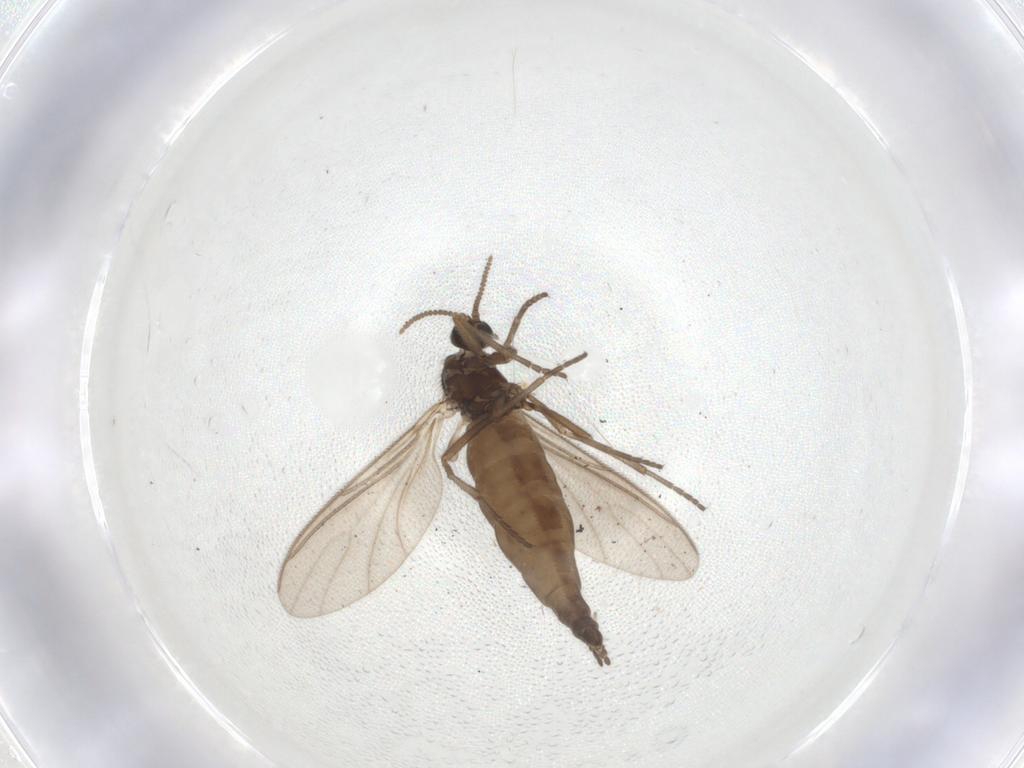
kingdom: Animalia
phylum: Arthropoda
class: Insecta
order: Diptera
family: Sciaridae
